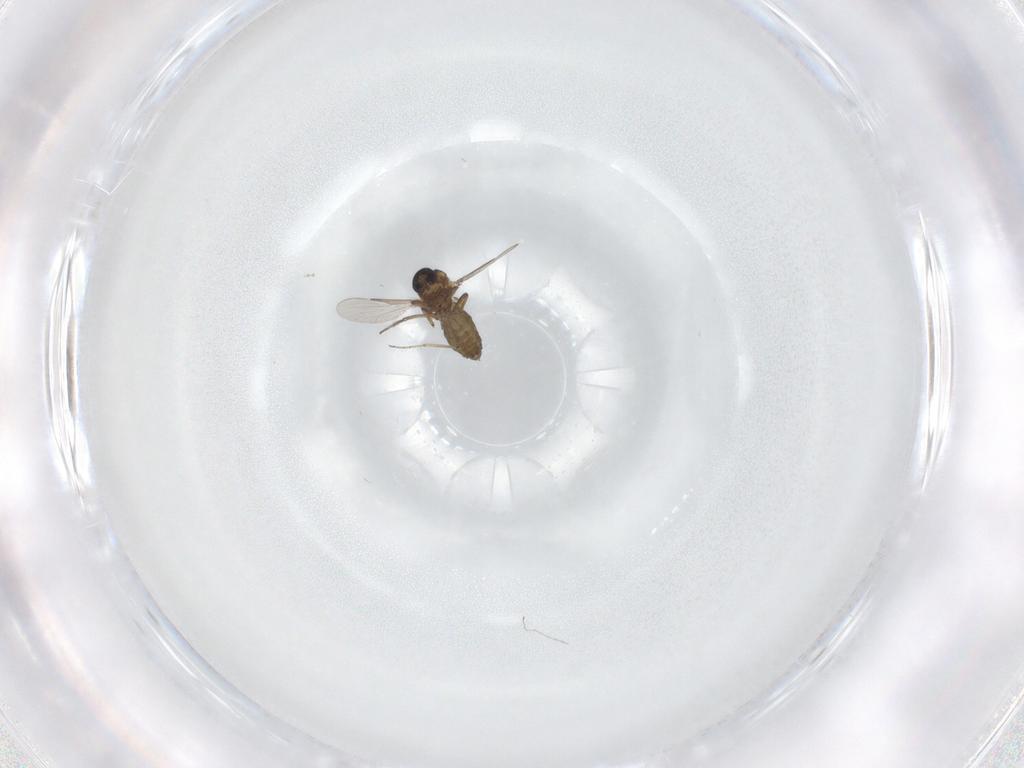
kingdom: Animalia
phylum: Arthropoda
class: Insecta
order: Diptera
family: Ceratopogonidae
